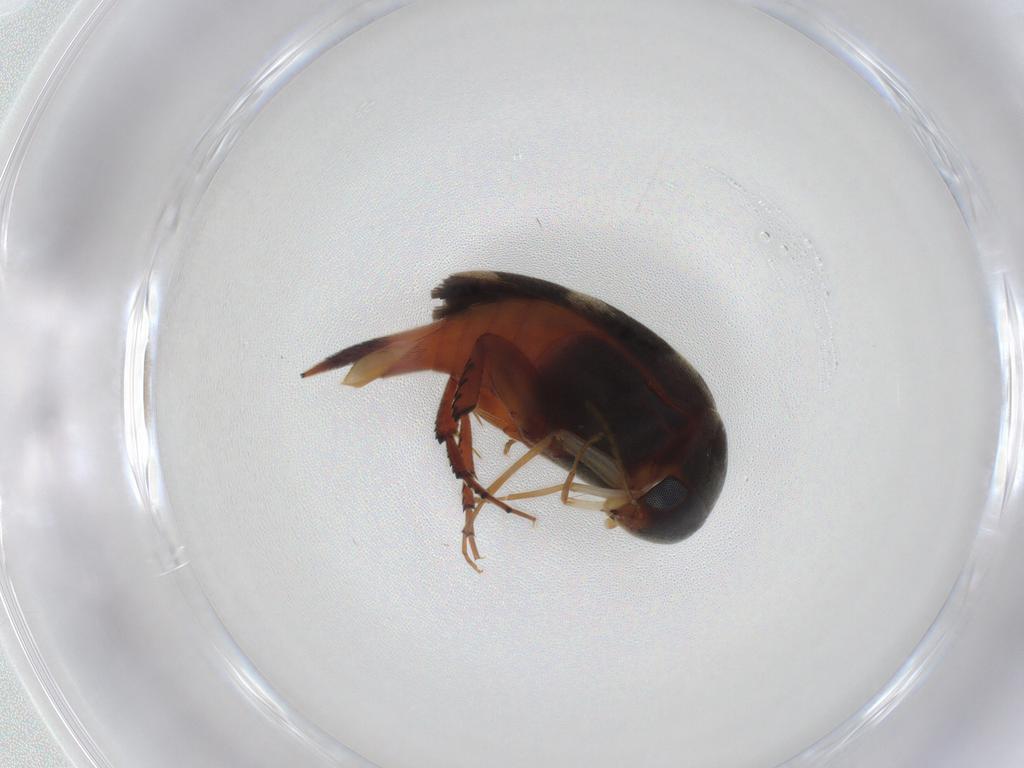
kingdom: Animalia
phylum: Arthropoda
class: Insecta
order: Coleoptera
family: Mordellidae
